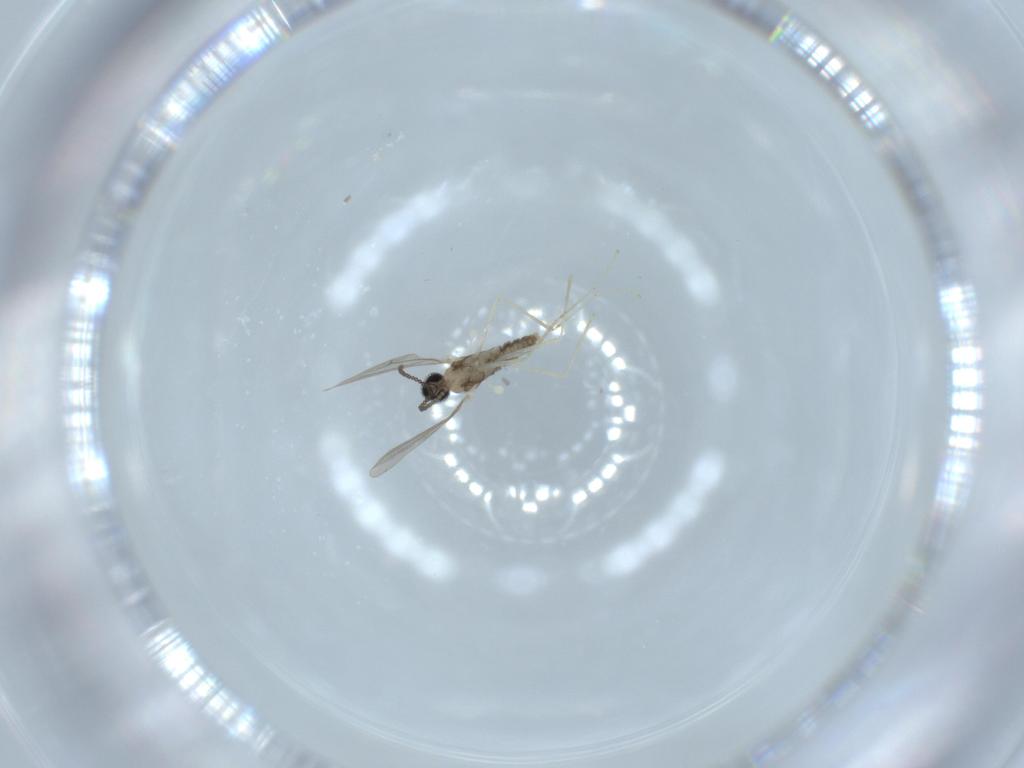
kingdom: Animalia
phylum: Arthropoda
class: Insecta
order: Diptera
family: Cecidomyiidae
